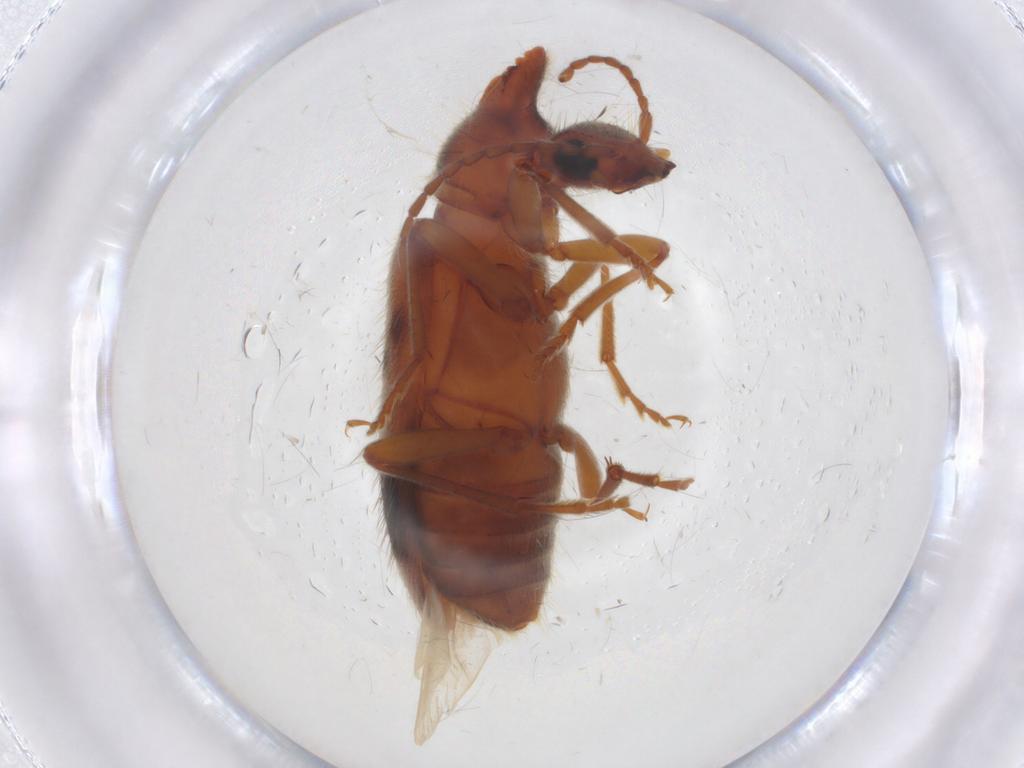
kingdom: Animalia
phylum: Arthropoda
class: Insecta
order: Coleoptera
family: Anthicidae
